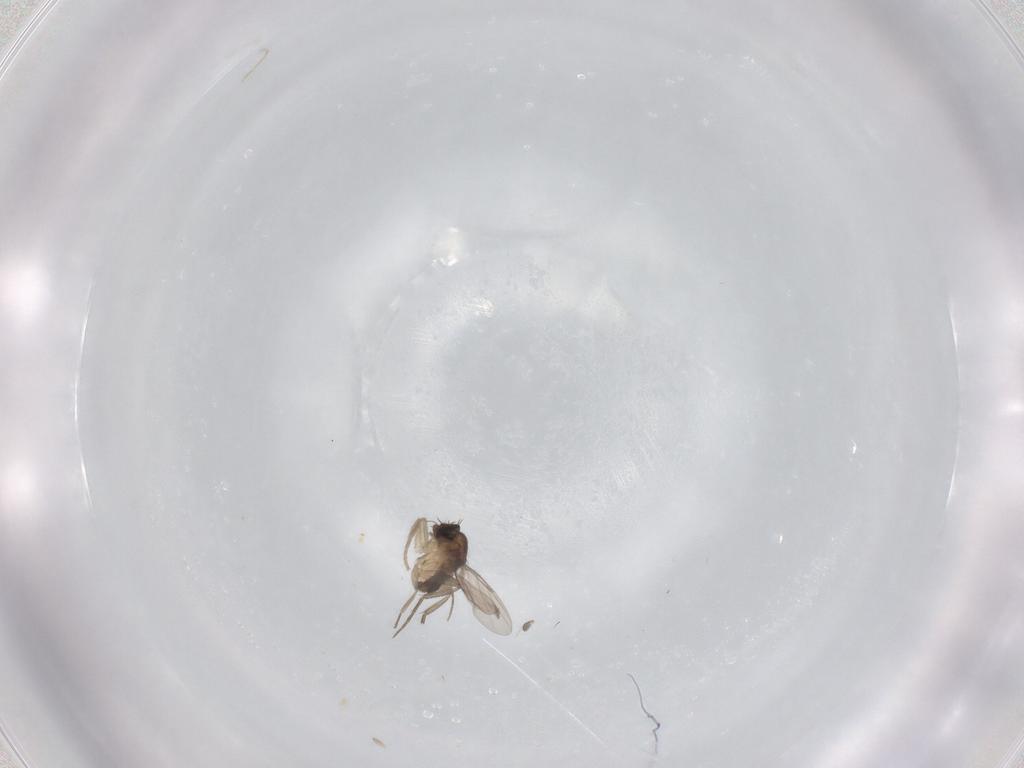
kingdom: Animalia
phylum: Arthropoda
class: Insecta
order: Diptera
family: Phoridae
